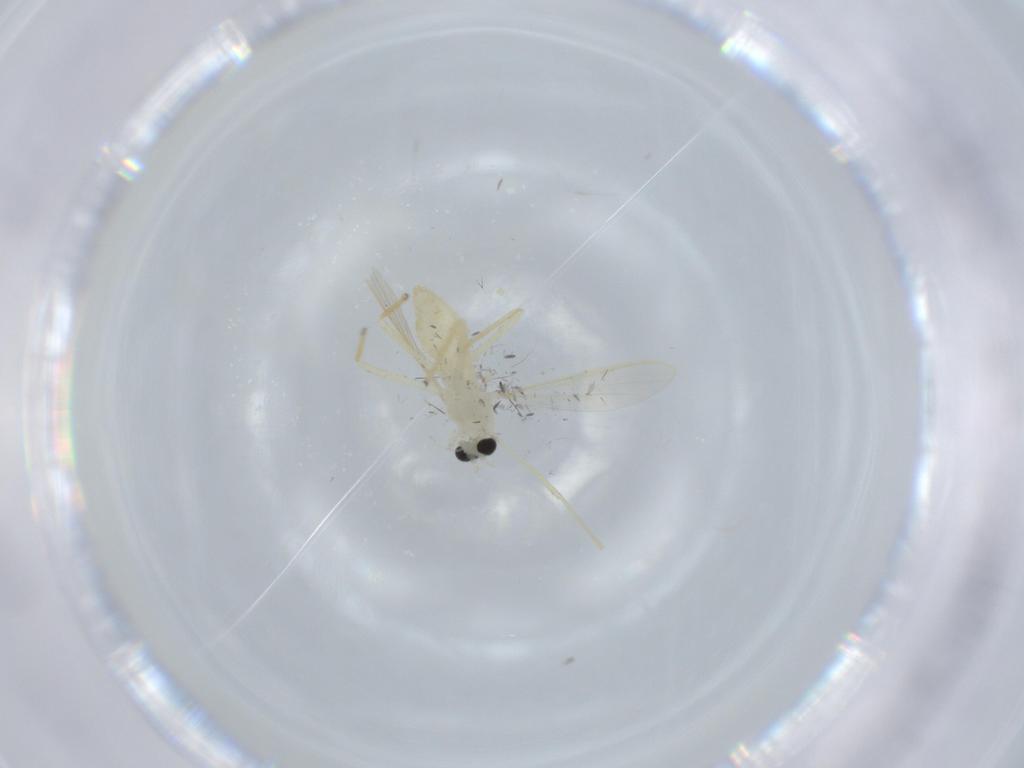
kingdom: Animalia
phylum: Arthropoda
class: Insecta
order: Diptera
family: Chironomidae
